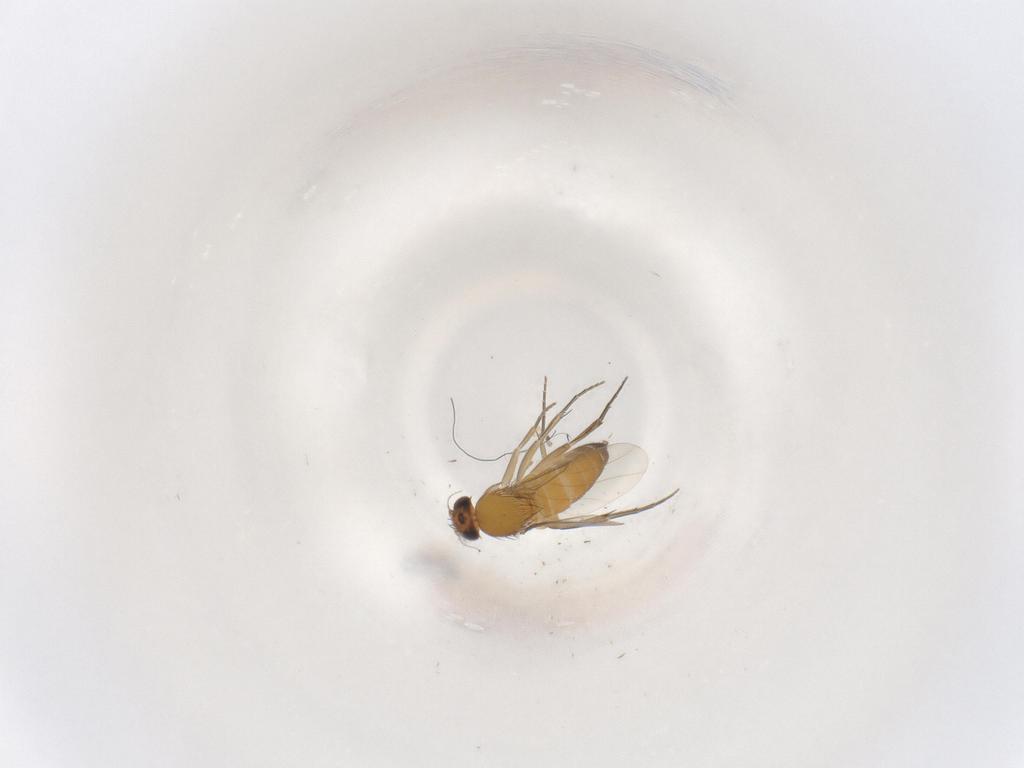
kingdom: Animalia
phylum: Arthropoda
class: Insecta
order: Diptera
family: Phoridae
